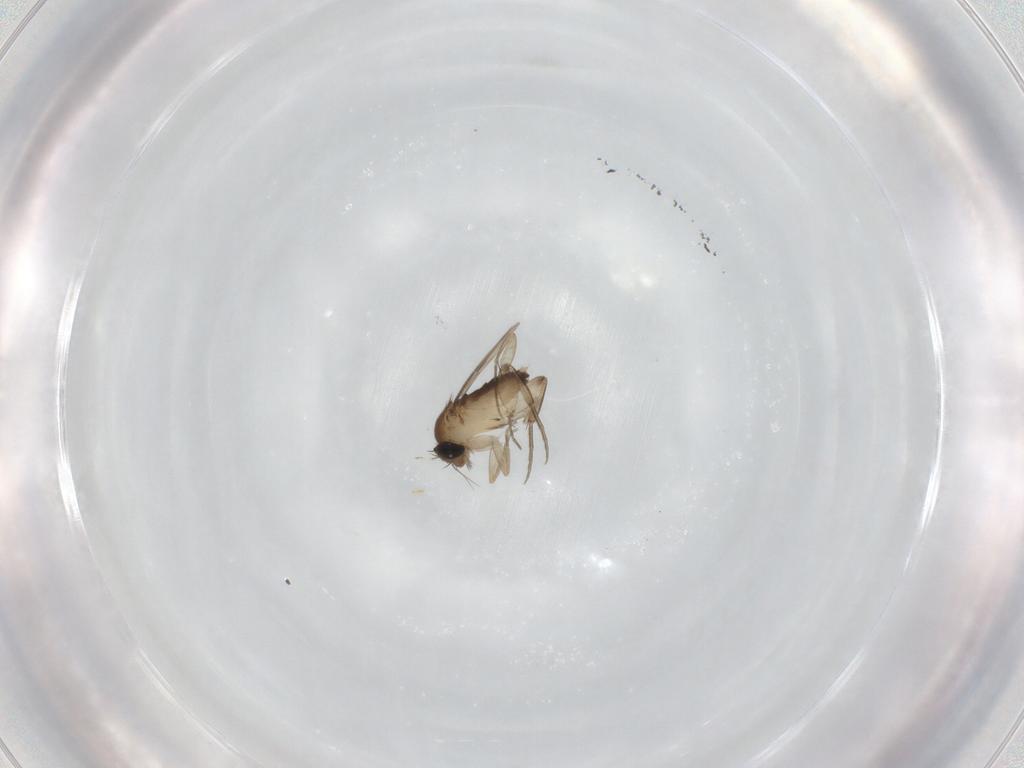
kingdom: Animalia
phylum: Arthropoda
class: Insecta
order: Diptera
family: Phoridae
